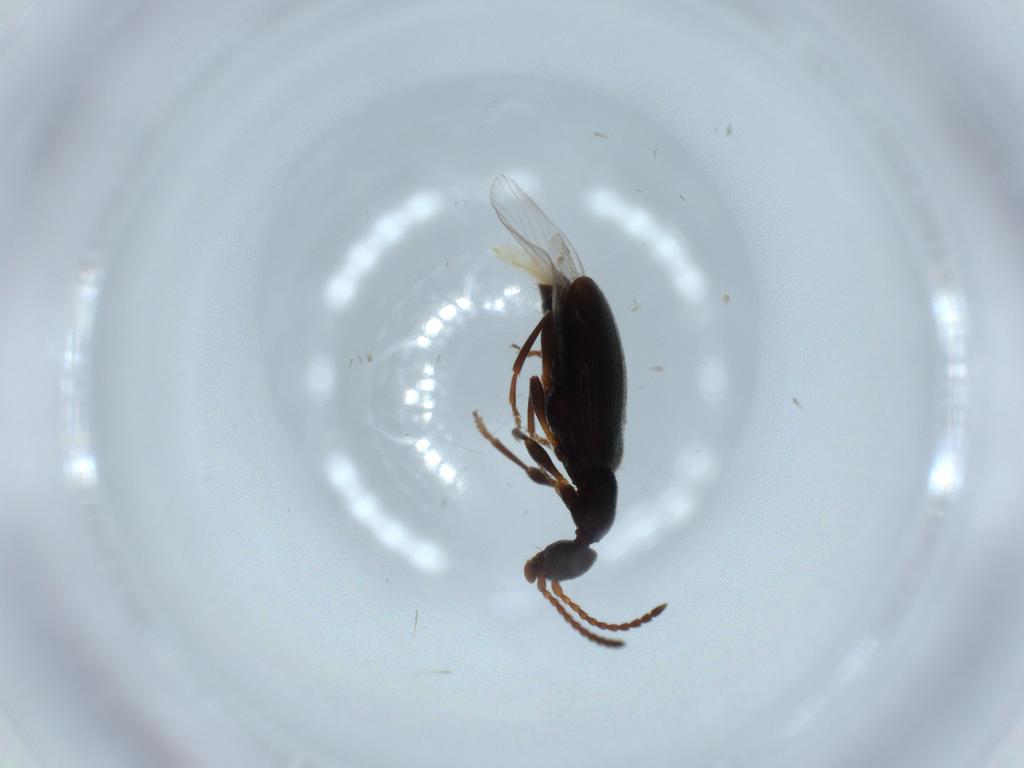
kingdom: Animalia
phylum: Arthropoda
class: Insecta
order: Coleoptera
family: Anthicidae
